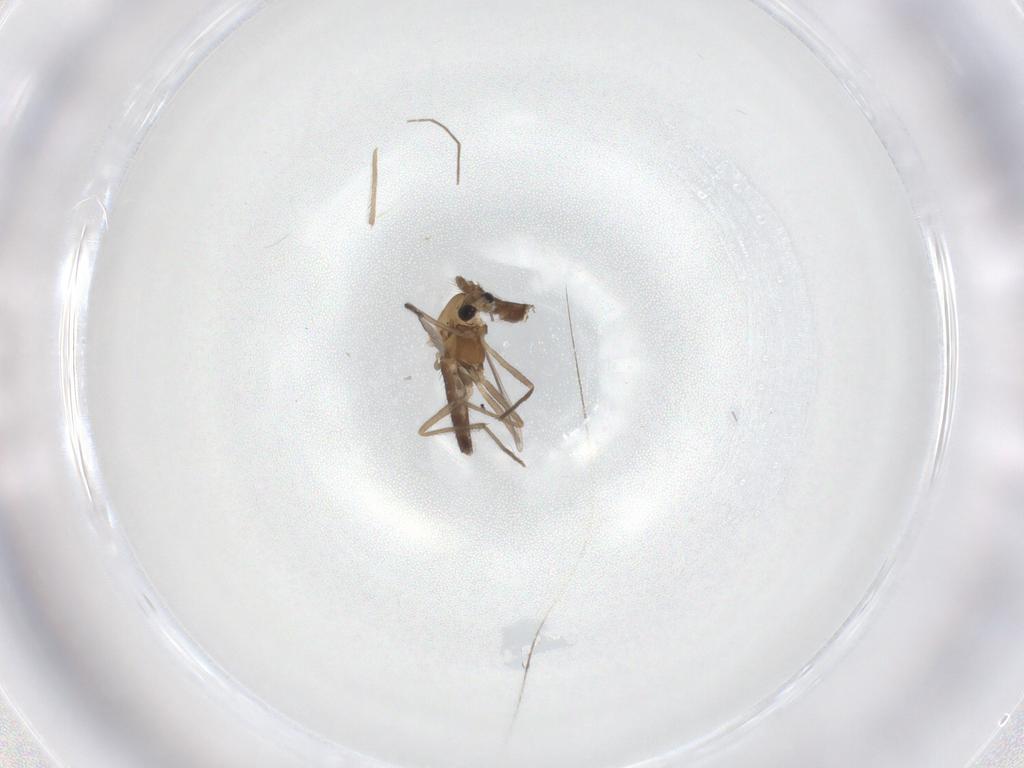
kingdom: Animalia
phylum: Arthropoda
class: Insecta
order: Diptera
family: Chironomidae
